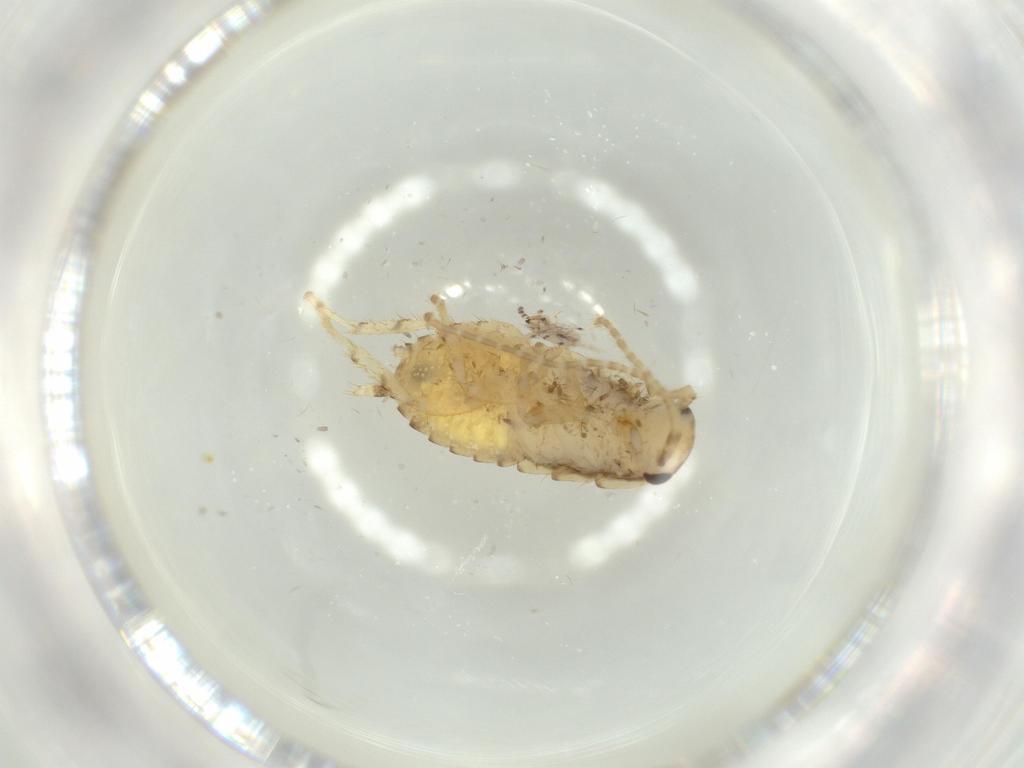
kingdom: Animalia
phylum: Arthropoda
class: Insecta
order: Blattodea
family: Ectobiidae
